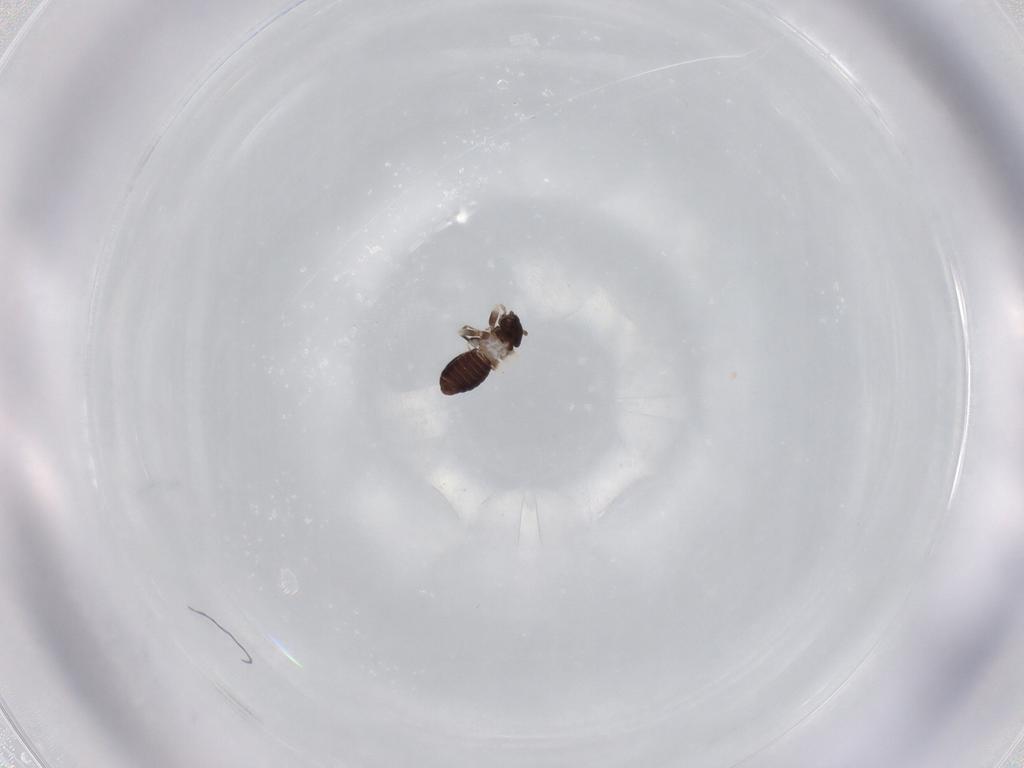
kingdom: Animalia
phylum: Arthropoda
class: Insecta
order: Psocodea
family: Lepidopsocidae
